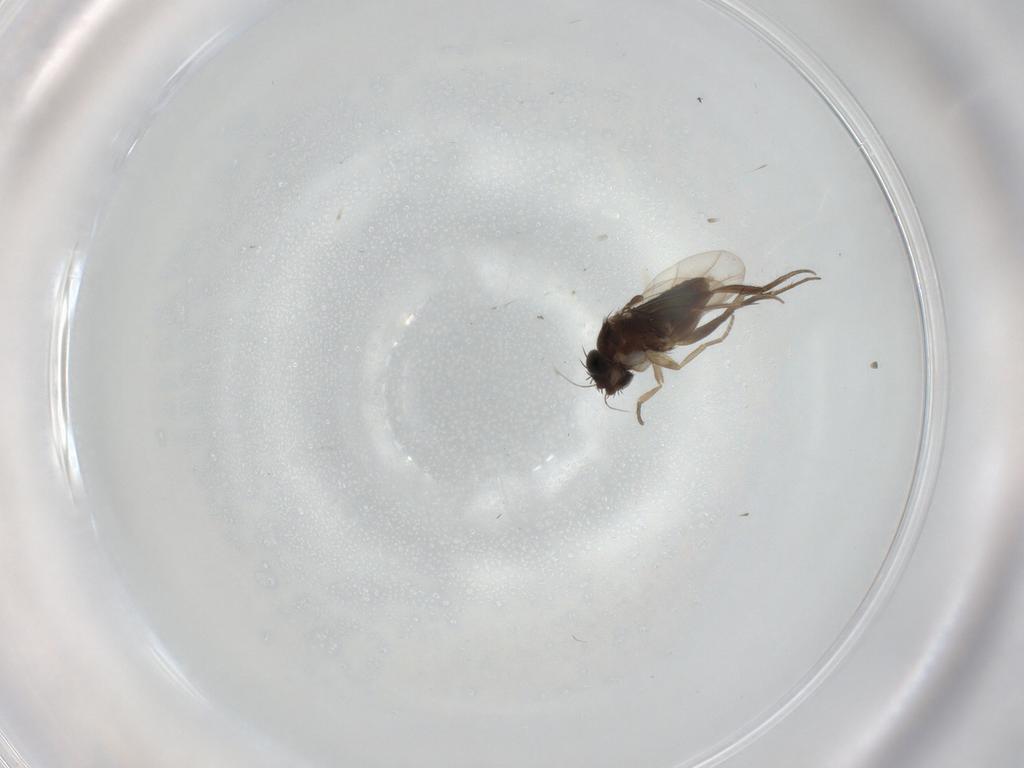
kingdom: Animalia
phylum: Arthropoda
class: Insecta
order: Diptera
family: Phoridae
